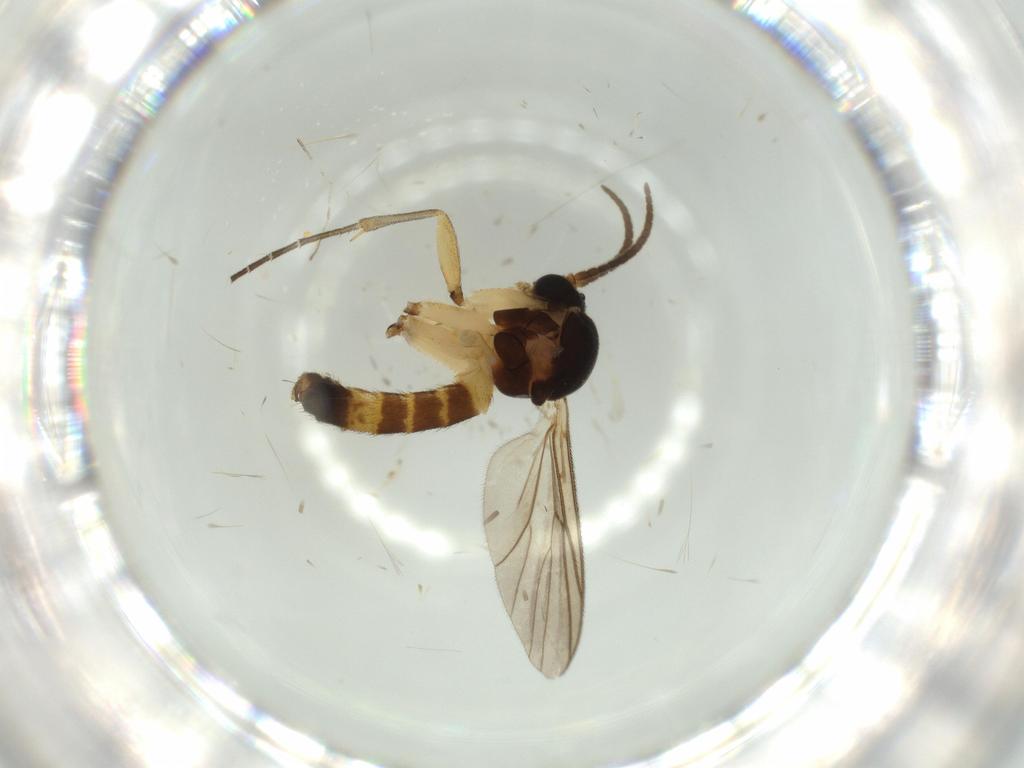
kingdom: Animalia
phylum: Arthropoda
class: Insecta
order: Diptera
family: Mycetophilidae
